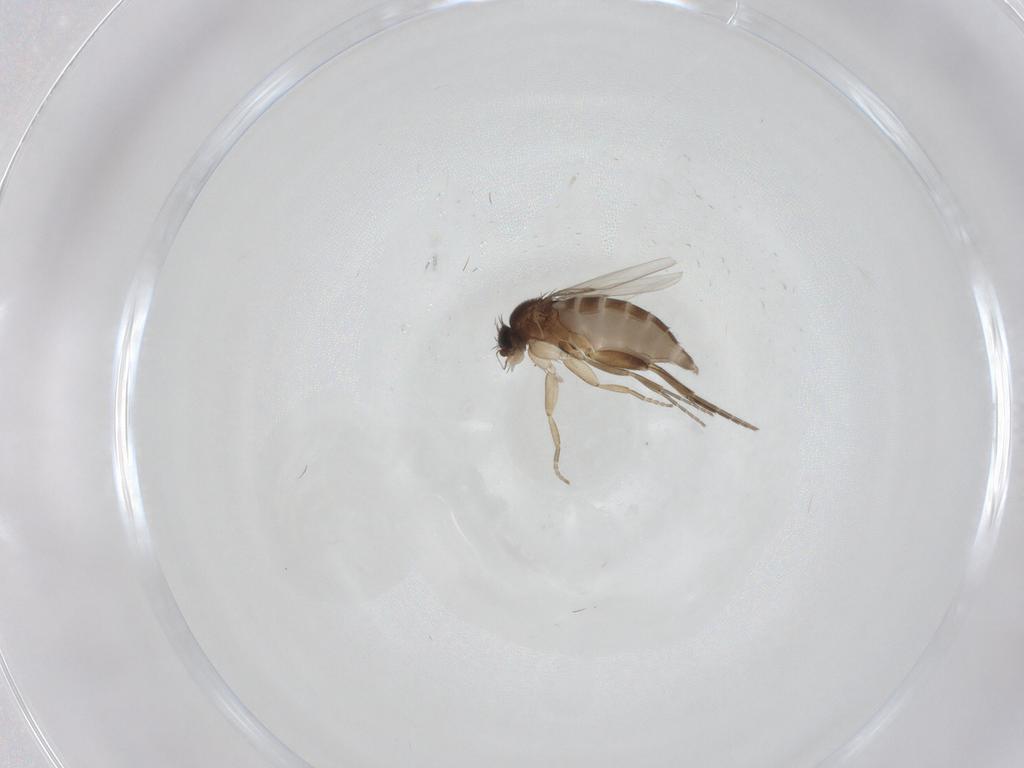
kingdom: Animalia
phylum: Arthropoda
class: Insecta
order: Diptera
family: Phoridae
